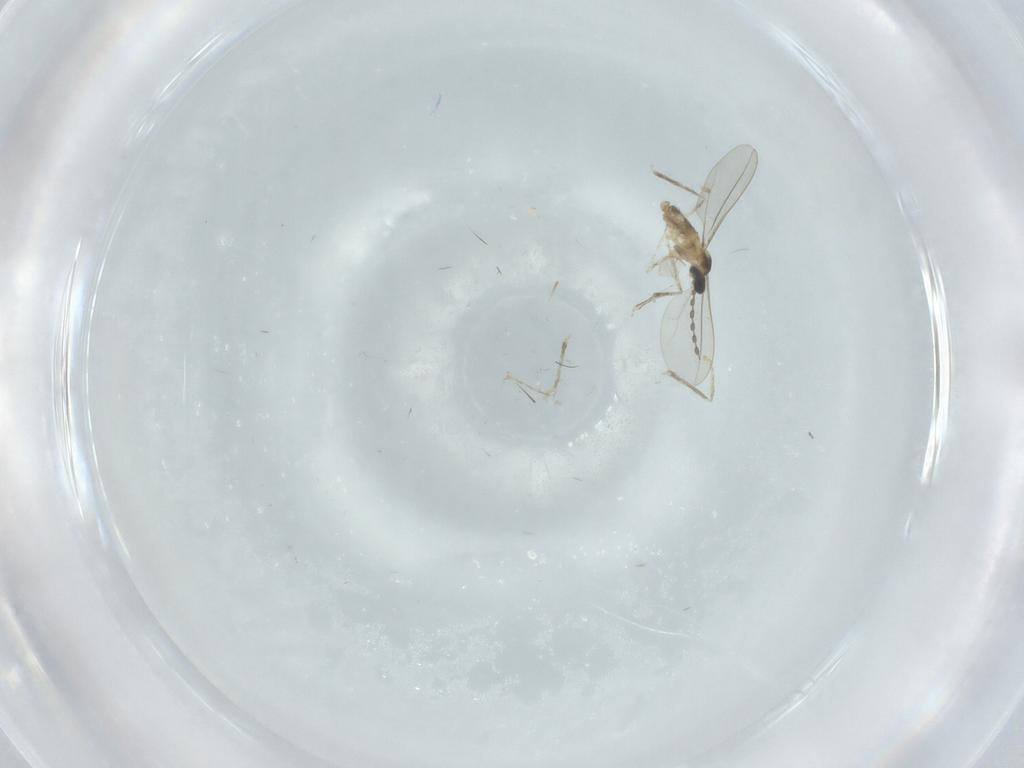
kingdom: Animalia
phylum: Arthropoda
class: Insecta
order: Diptera
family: Cecidomyiidae
